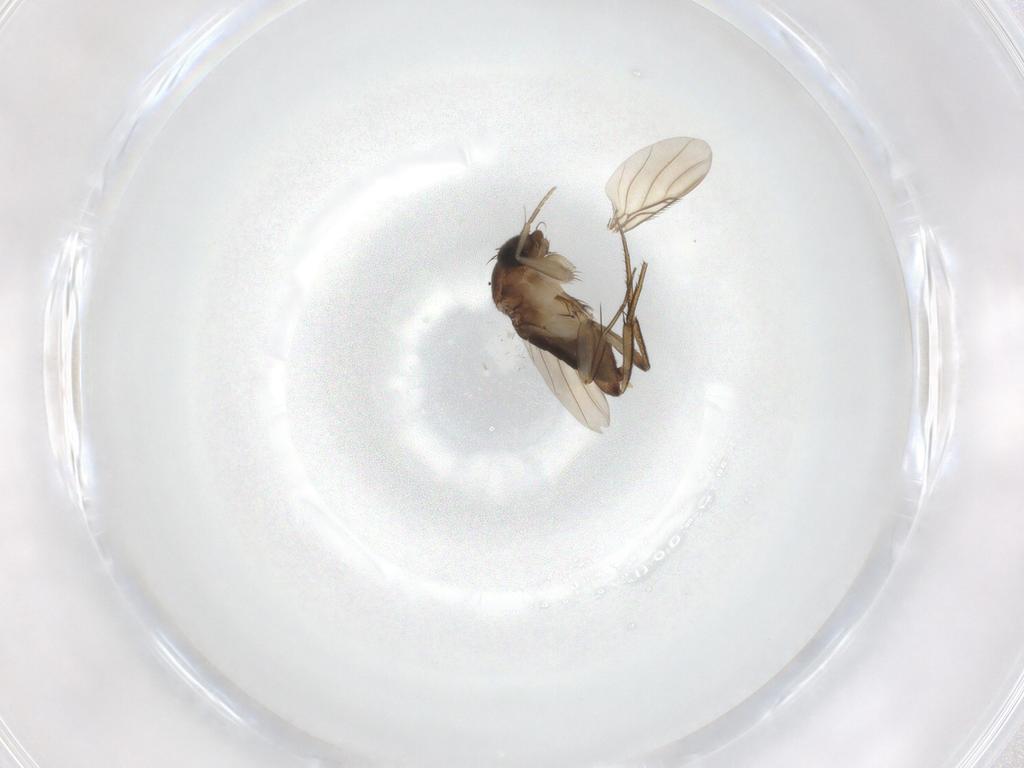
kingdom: Animalia
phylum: Arthropoda
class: Insecta
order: Diptera
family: Phoridae
